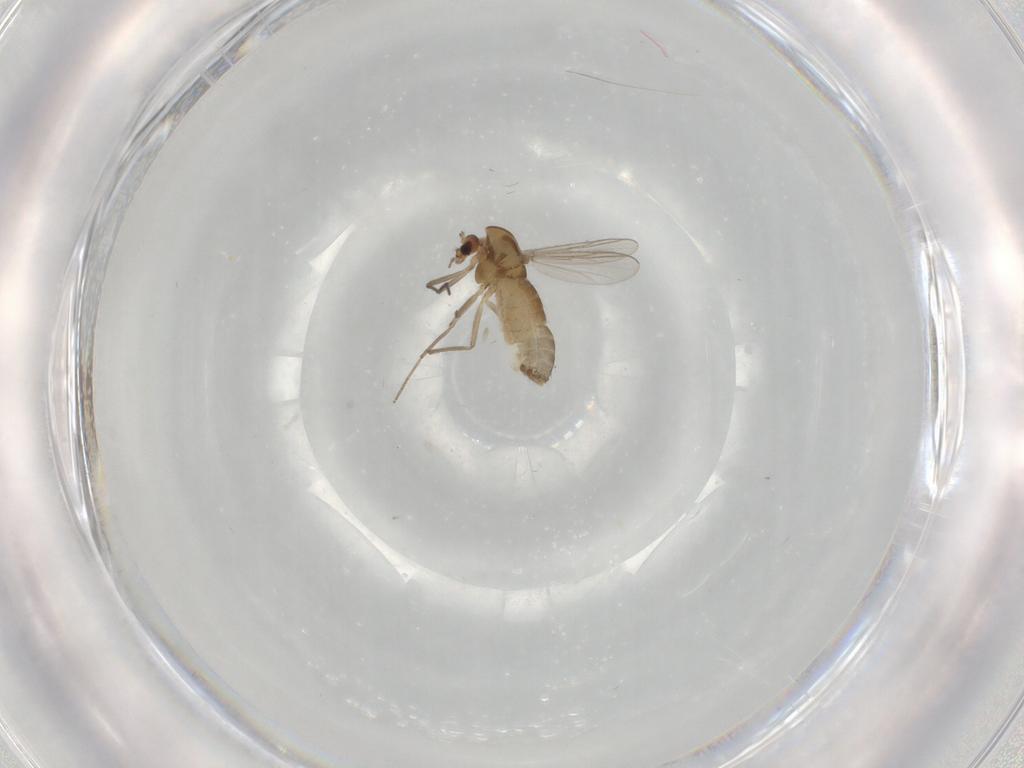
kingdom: Animalia
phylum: Arthropoda
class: Insecta
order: Diptera
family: Chironomidae
